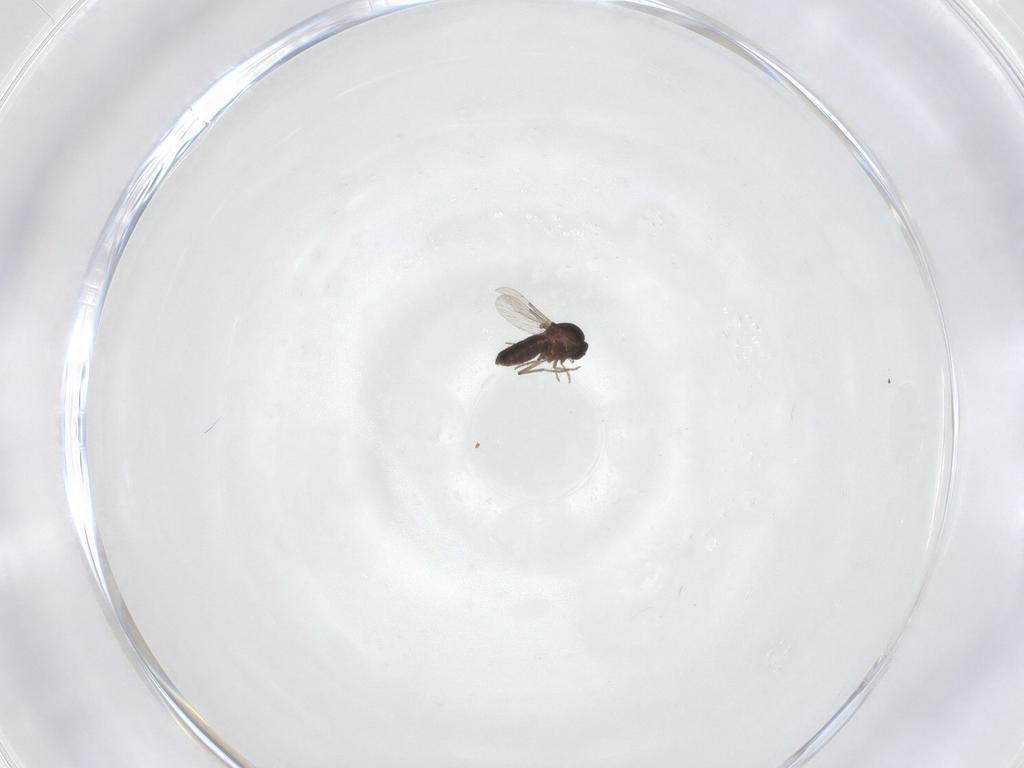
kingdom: Animalia
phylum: Arthropoda
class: Insecta
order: Diptera
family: Ceratopogonidae
